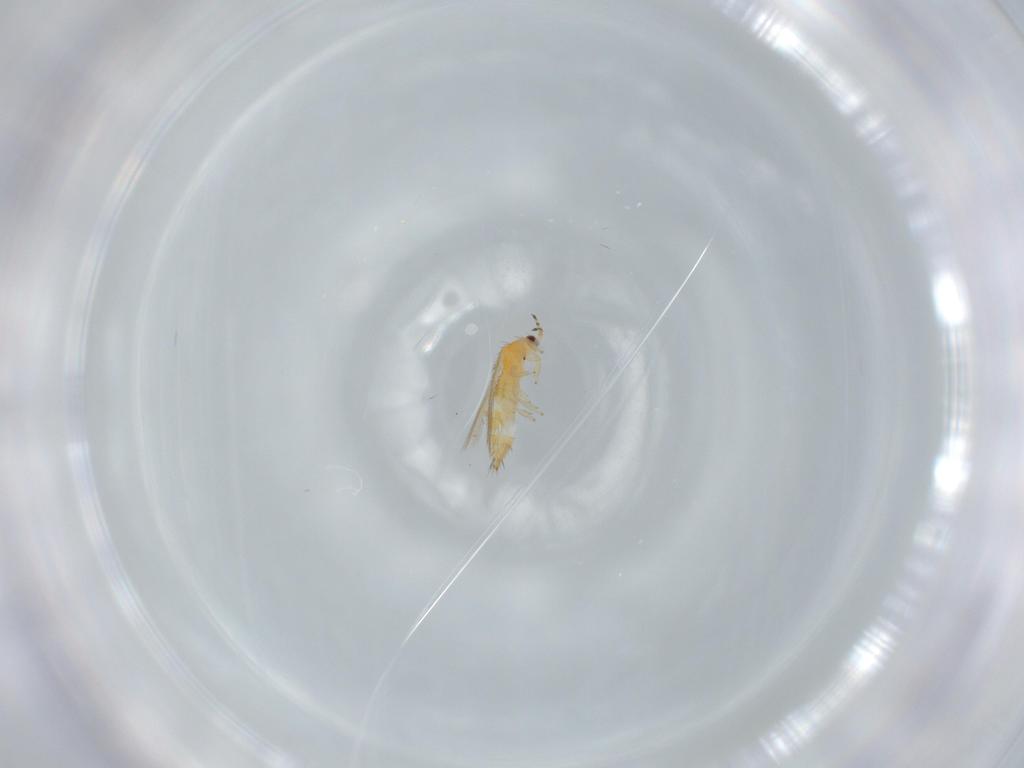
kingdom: Animalia
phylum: Arthropoda
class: Insecta
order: Thysanoptera
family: Thripidae
